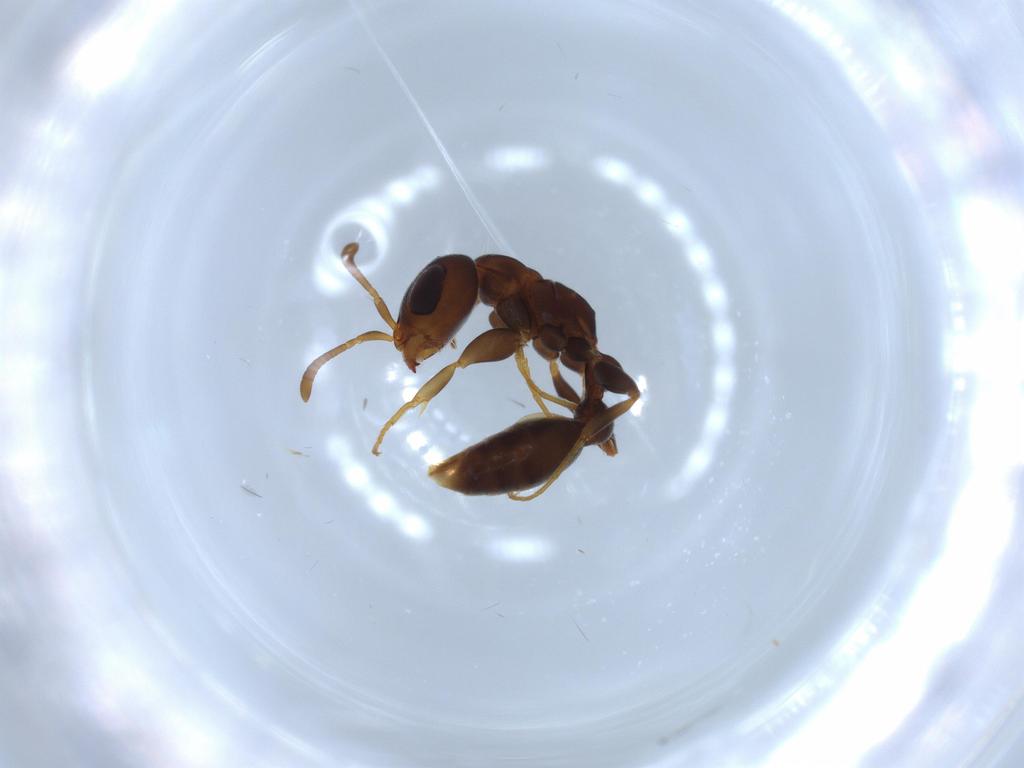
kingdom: Animalia
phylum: Arthropoda
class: Insecta
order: Hymenoptera
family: Formicidae
